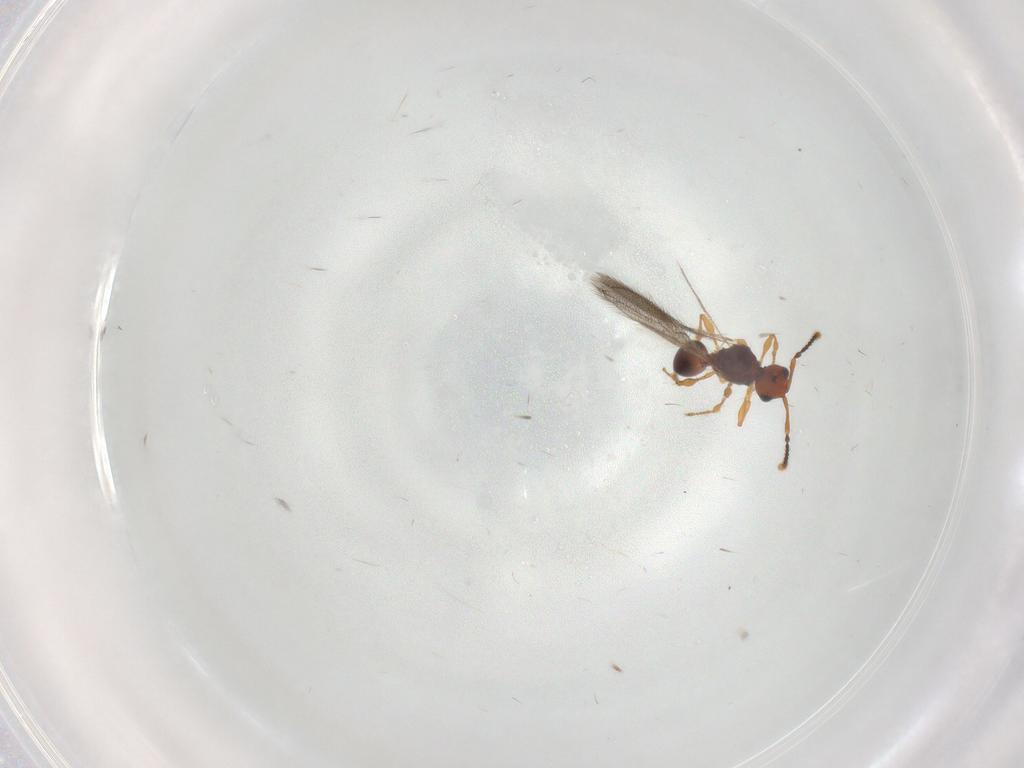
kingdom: Animalia
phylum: Arthropoda
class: Insecta
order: Hymenoptera
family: Diapriidae
